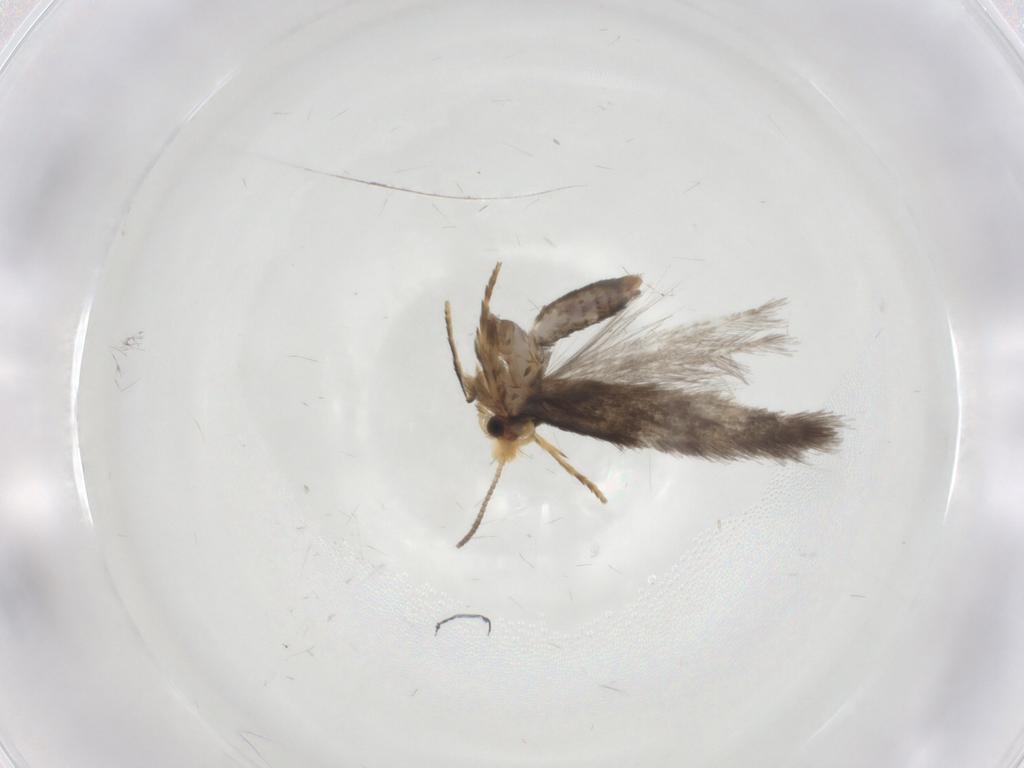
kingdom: Animalia
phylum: Arthropoda
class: Insecta
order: Lepidoptera
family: Nepticulidae
